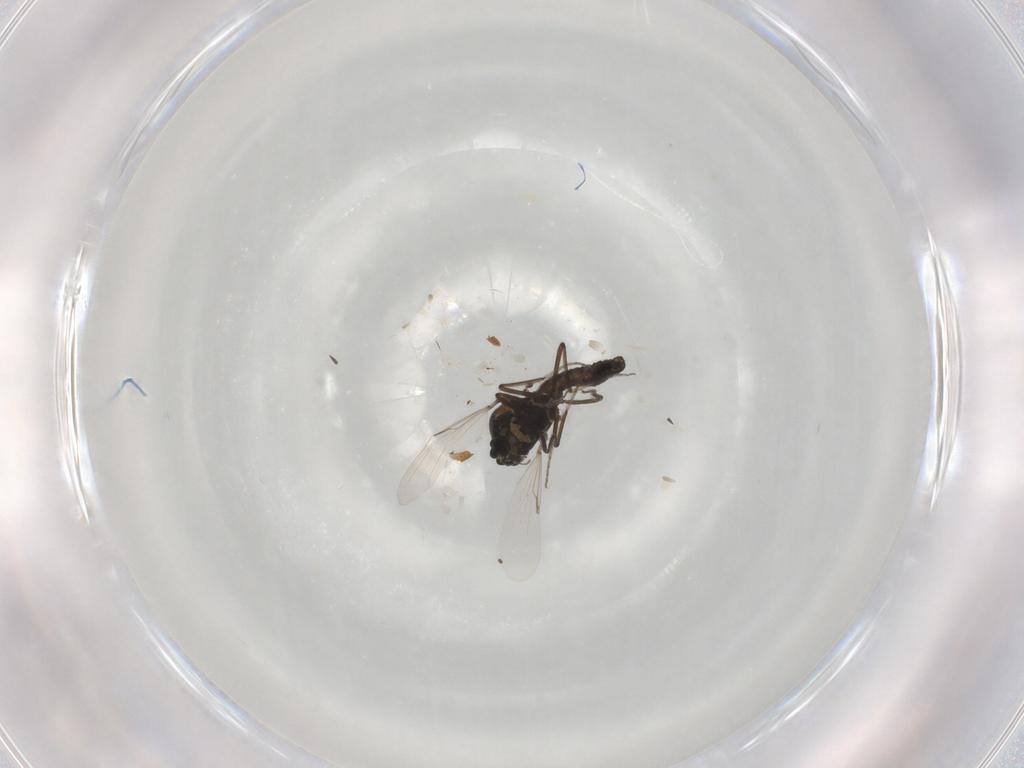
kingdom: Animalia
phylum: Arthropoda
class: Insecta
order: Diptera
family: Ceratopogonidae
